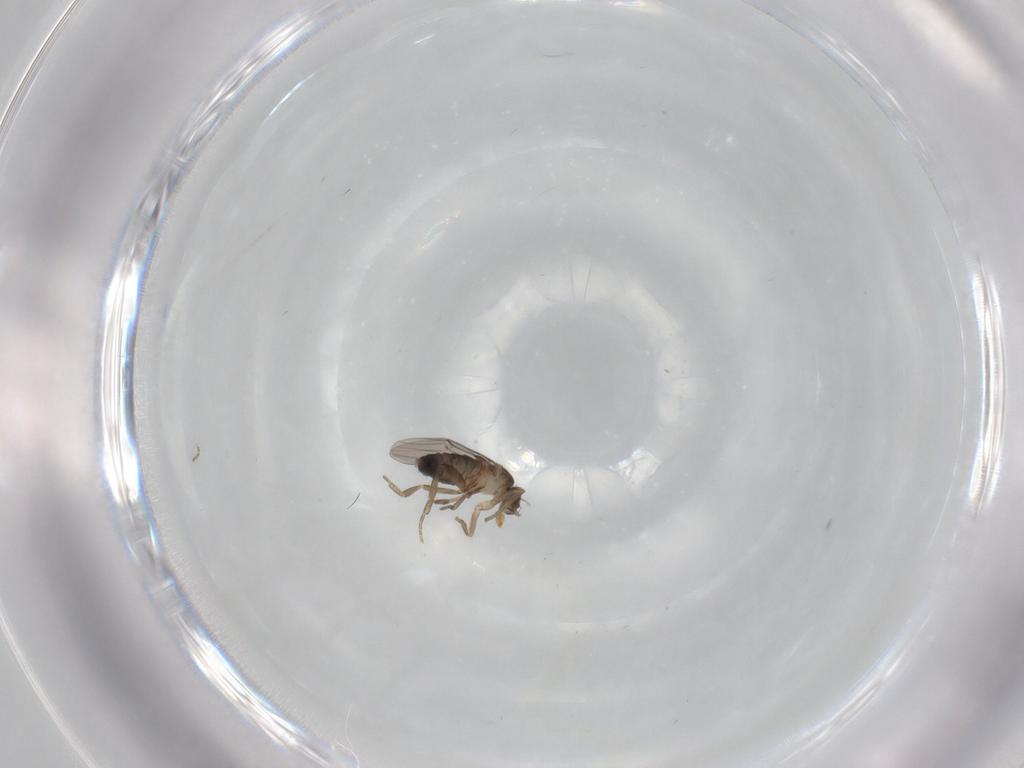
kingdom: Animalia
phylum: Arthropoda
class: Insecta
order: Diptera
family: Phoridae
